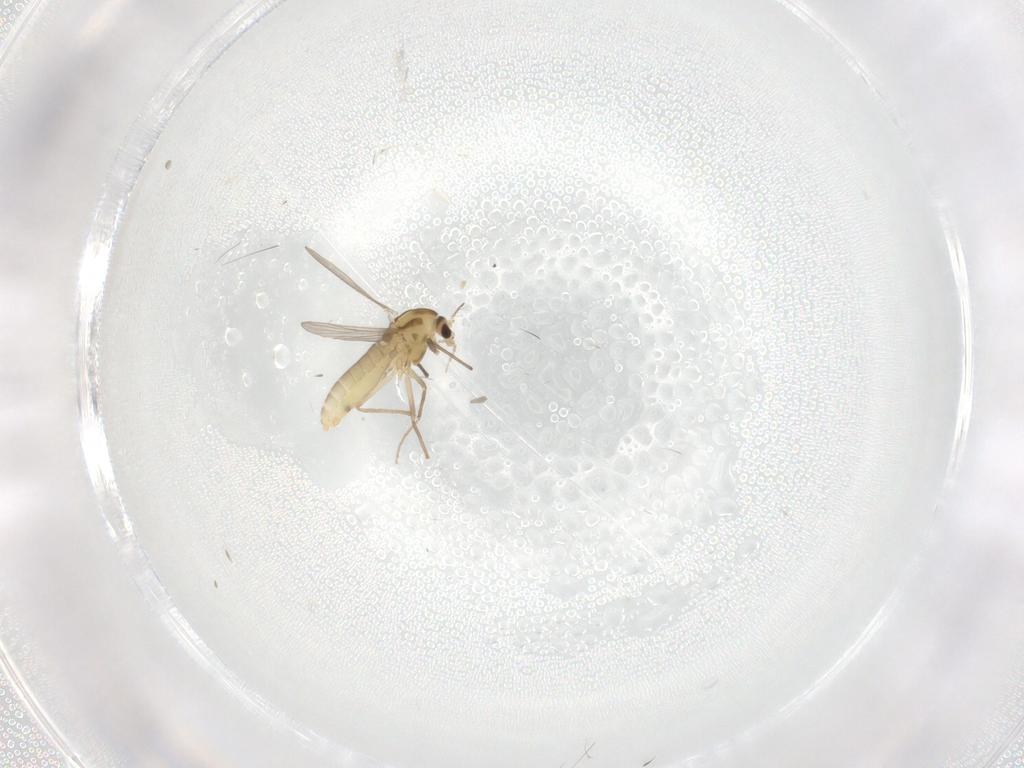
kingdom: Animalia
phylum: Arthropoda
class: Insecta
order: Diptera
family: Chironomidae
